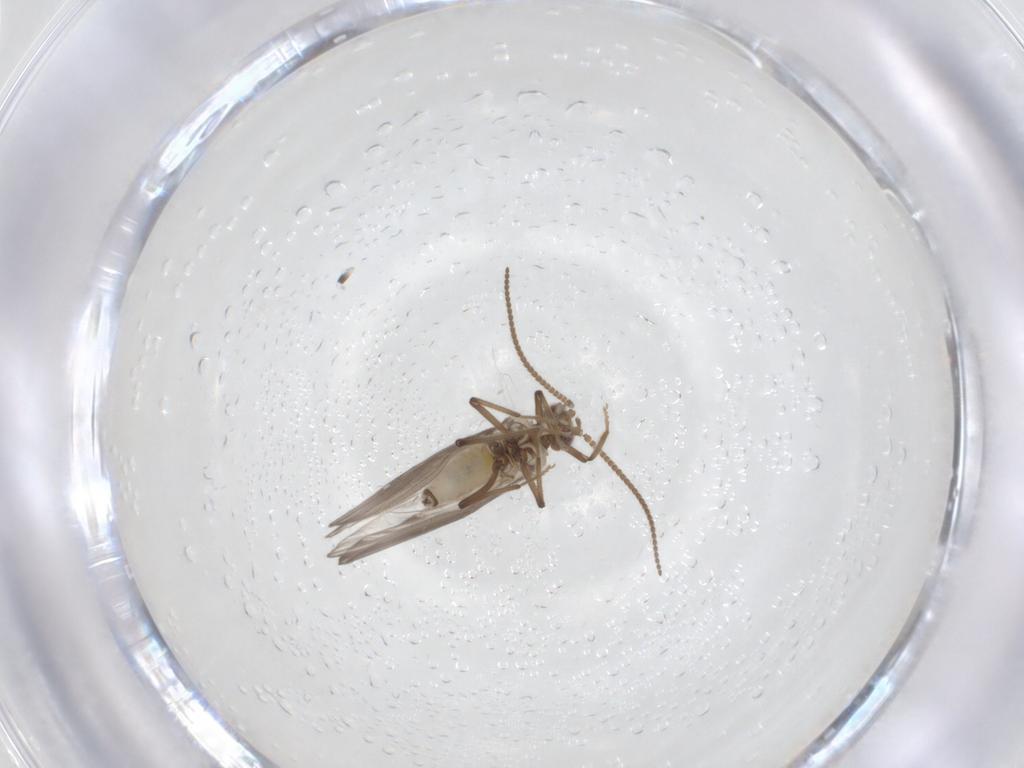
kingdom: Animalia
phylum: Arthropoda
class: Insecta
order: Neuroptera
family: Coniopterygidae
